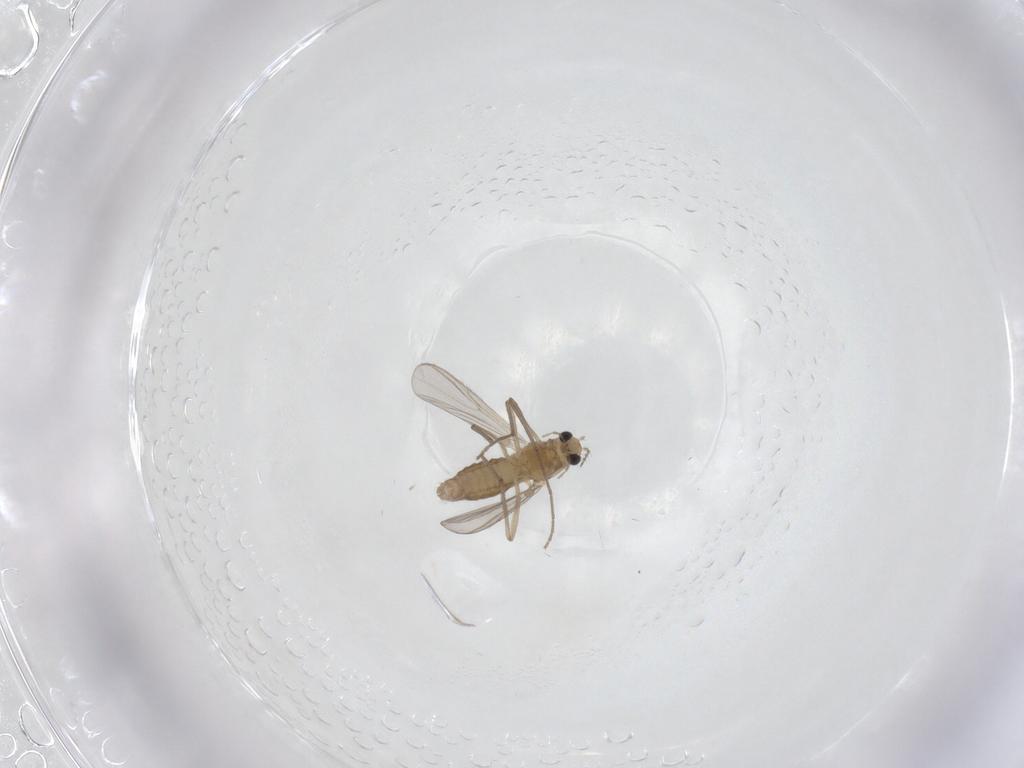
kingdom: Animalia
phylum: Arthropoda
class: Insecta
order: Diptera
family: Chironomidae
